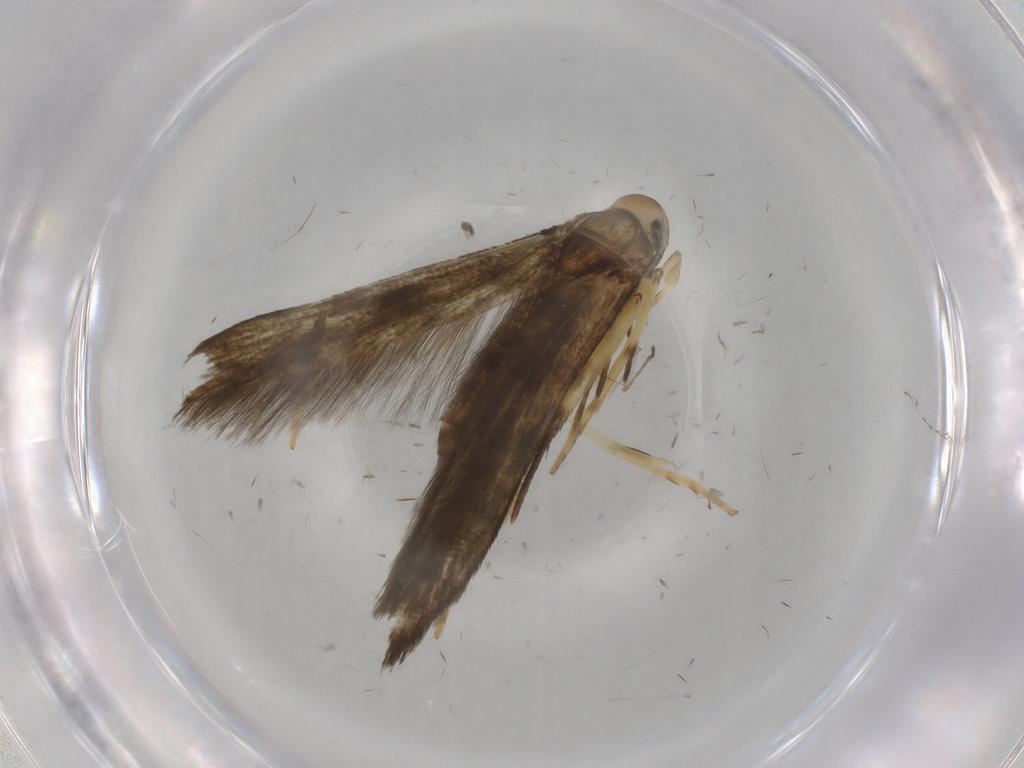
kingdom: Animalia
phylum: Arthropoda
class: Insecta
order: Lepidoptera
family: Stathmopodidae
